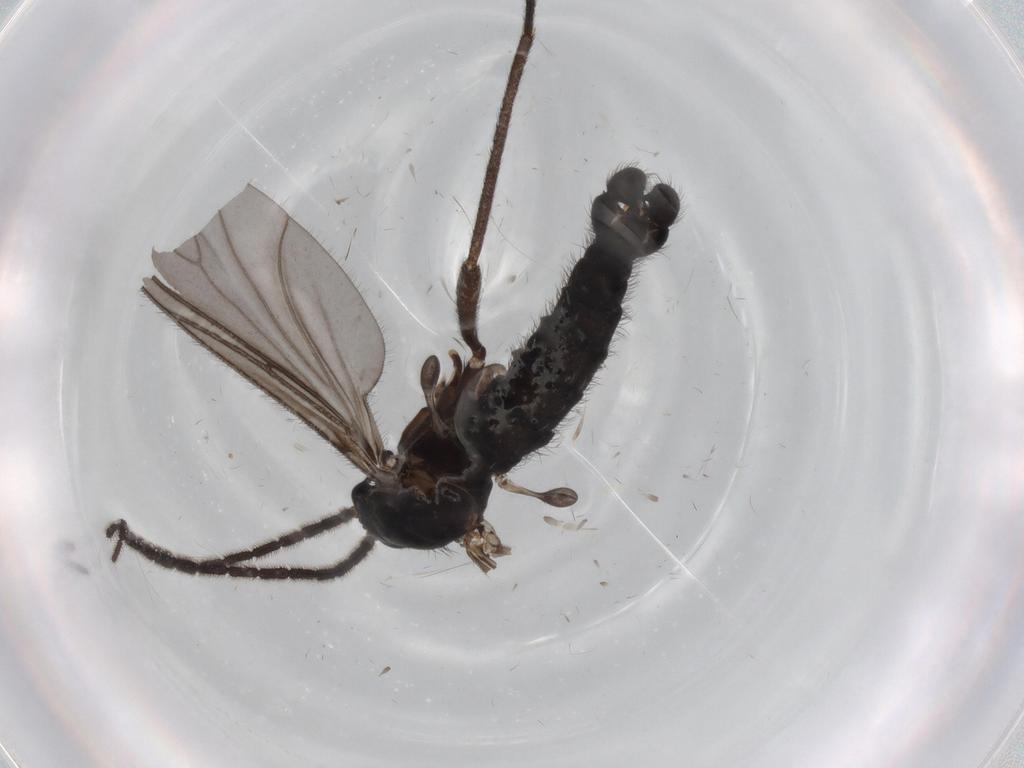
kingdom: Animalia
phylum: Arthropoda
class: Insecta
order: Diptera
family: Sciaridae
